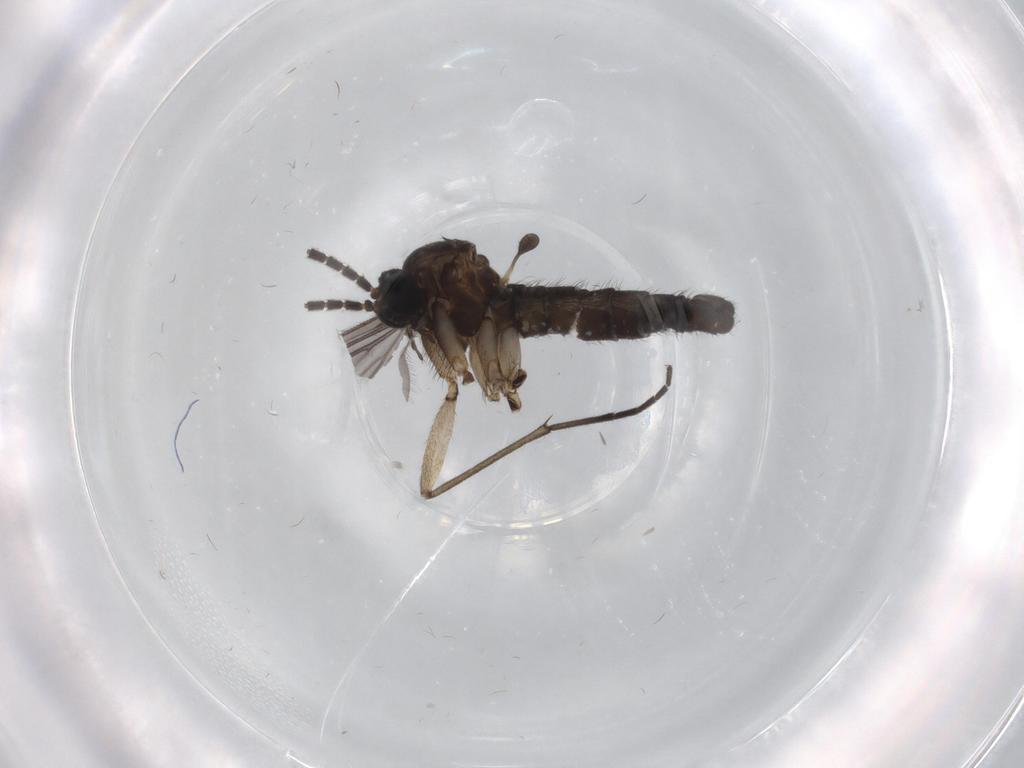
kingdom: Animalia
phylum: Arthropoda
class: Insecta
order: Diptera
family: Sciaridae
